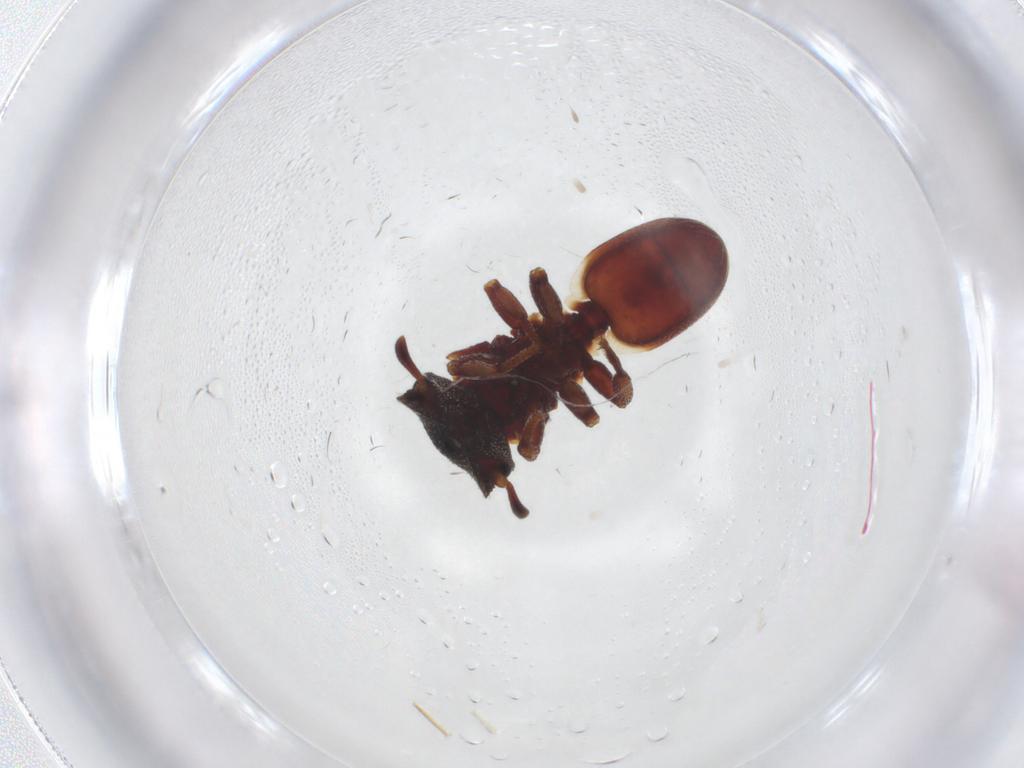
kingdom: Animalia
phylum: Arthropoda
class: Insecta
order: Hymenoptera
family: Formicidae
